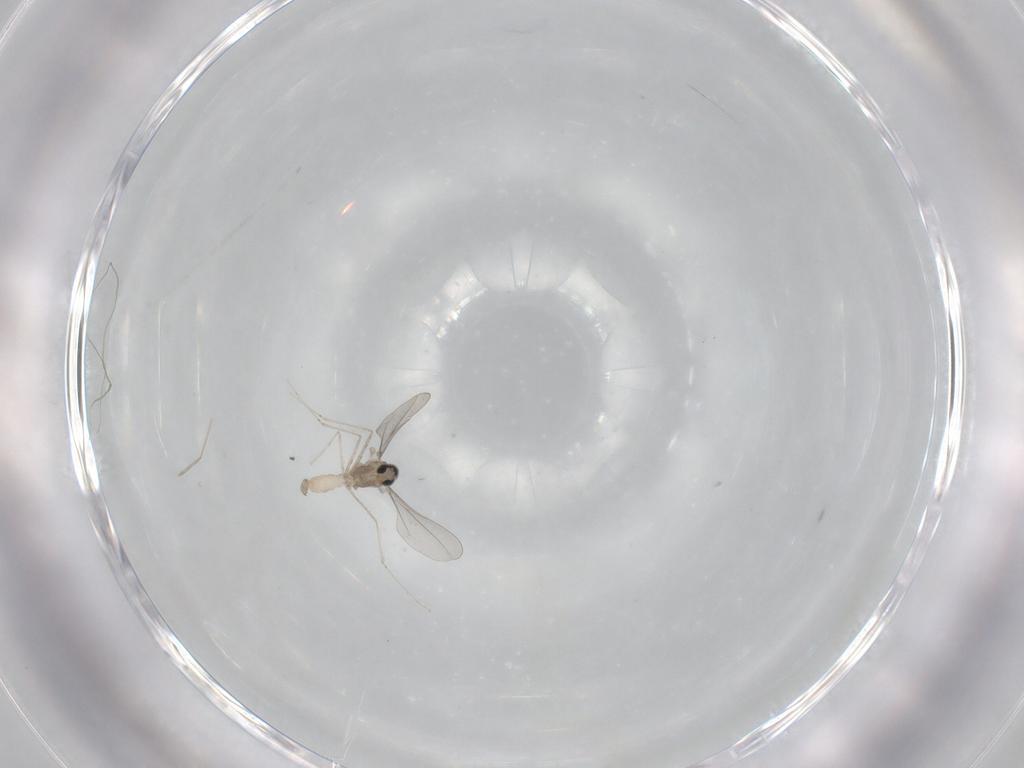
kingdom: Animalia
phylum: Arthropoda
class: Insecta
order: Diptera
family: Cecidomyiidae
